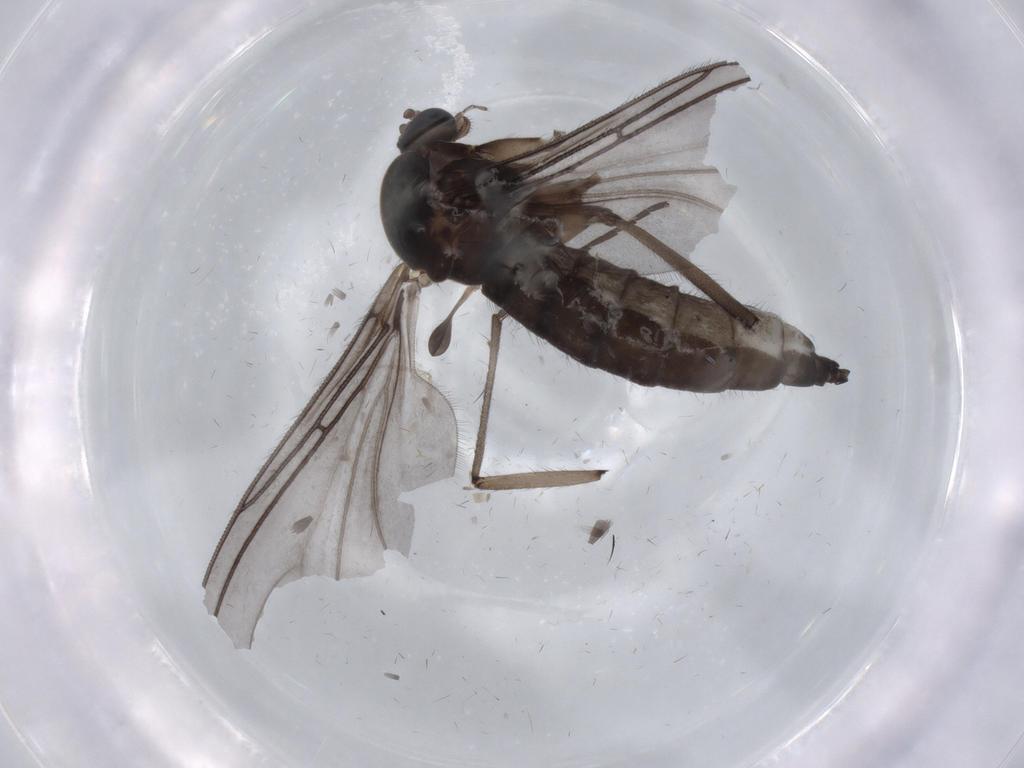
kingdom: Animalia
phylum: Arthropoda
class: Insecta
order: Diptera
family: Sciaridae
